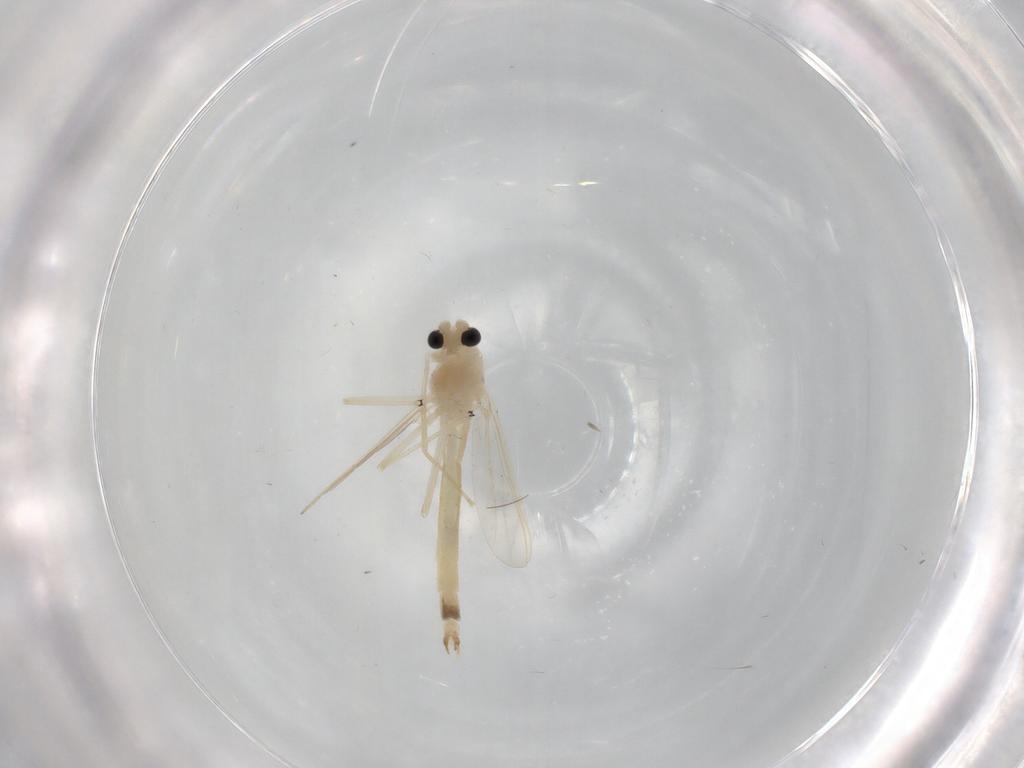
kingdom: Animalia
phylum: Arthropoda
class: Insecta
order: Diptera
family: Chironomidae
